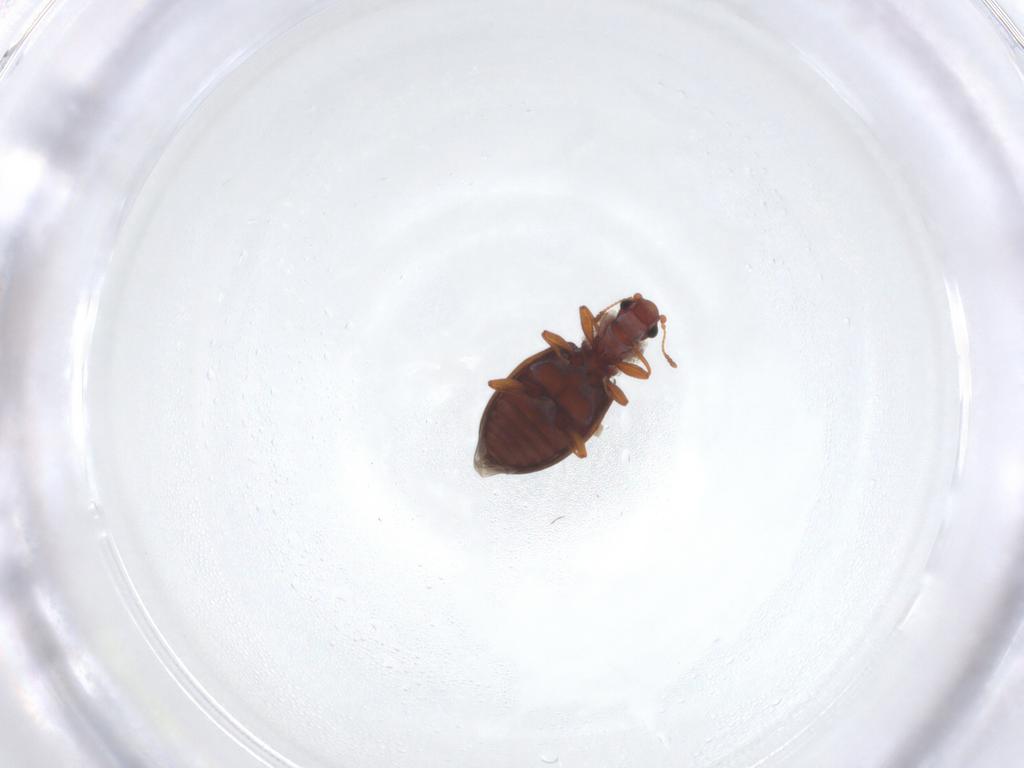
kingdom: Animalia
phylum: Arthropoda
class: Insecta
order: Coleoptera
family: Latridiidae
